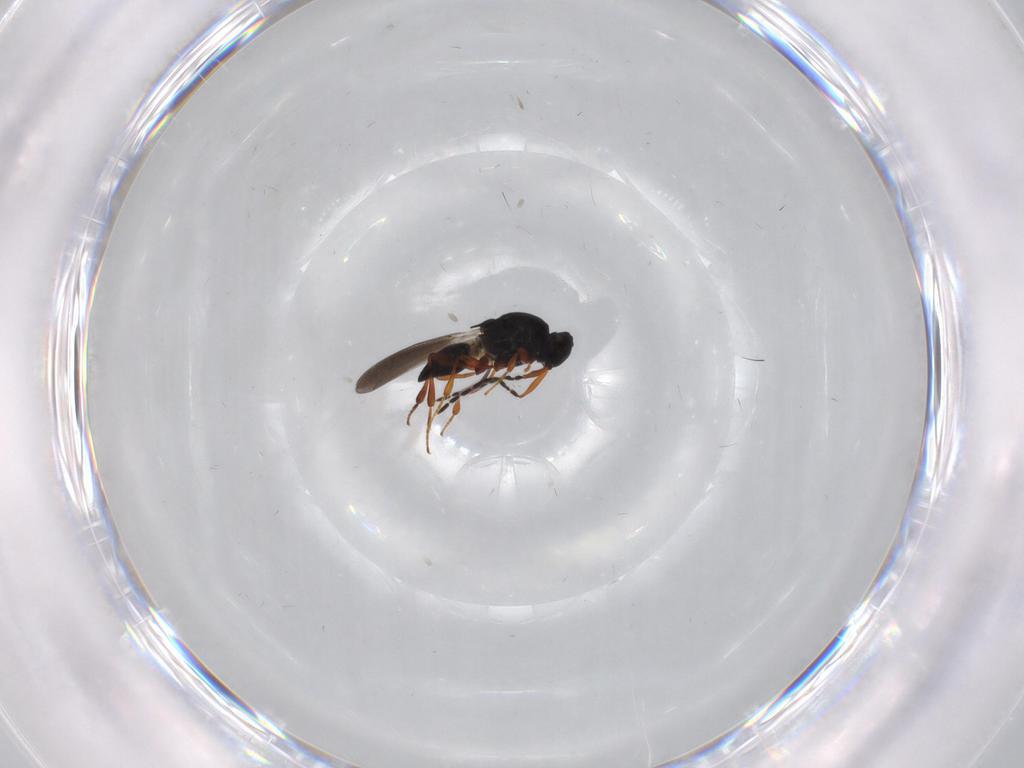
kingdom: Animalia
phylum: Arthropoda
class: Insecta
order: Hymenoptera
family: Platygastridae
